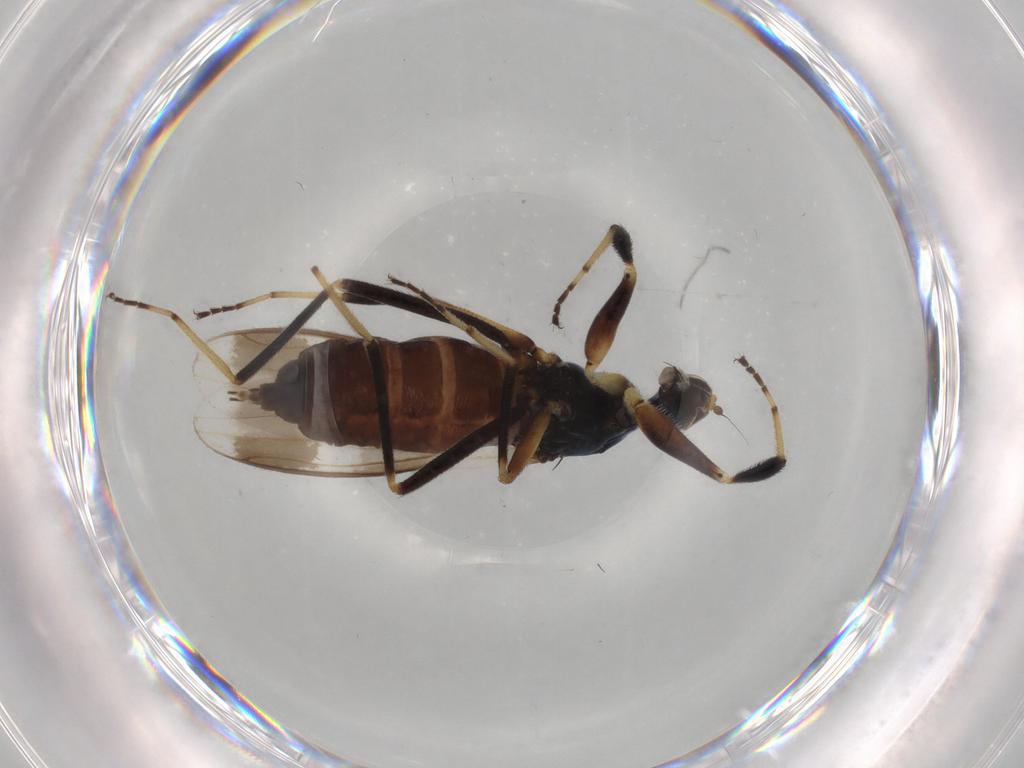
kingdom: Animalia
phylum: Arthropoda
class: Insecta
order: Diptera
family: Hybotidae
